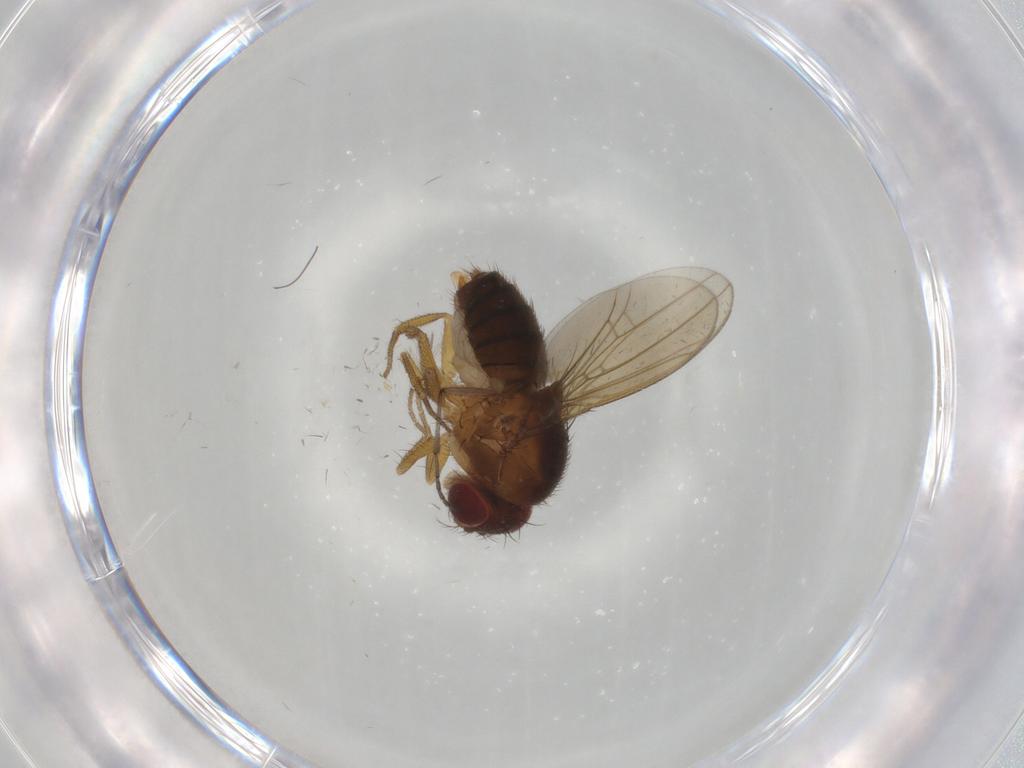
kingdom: Animalia
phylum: Arthropoda
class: Insecta
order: Diptera
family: Drosophilidae
